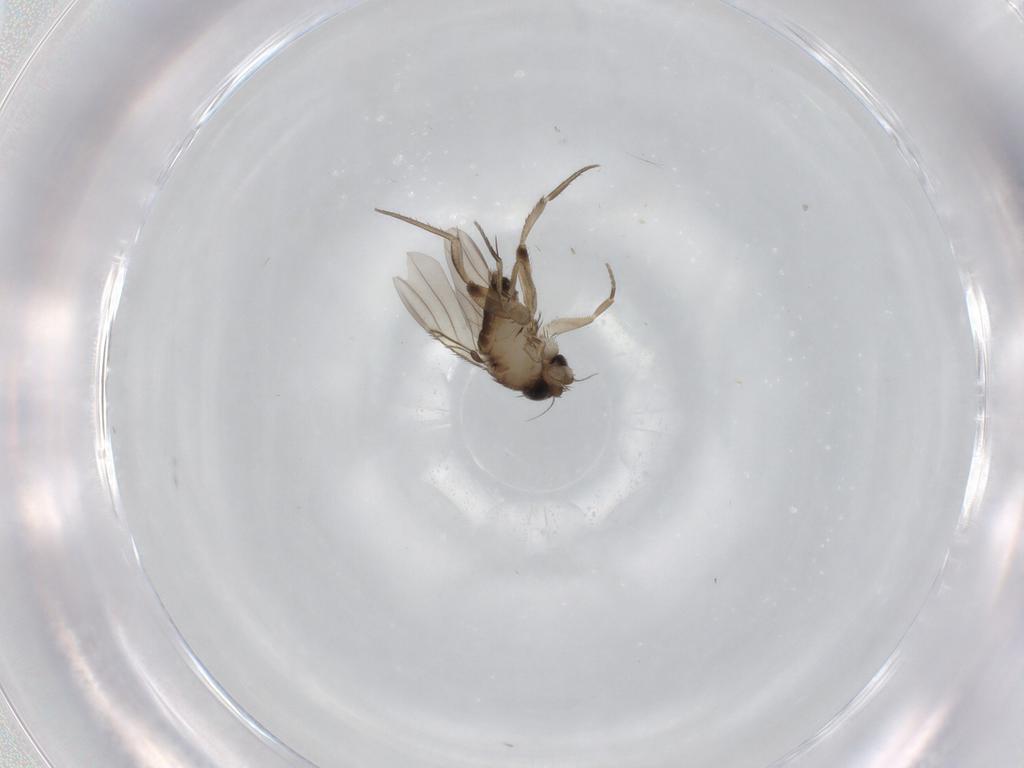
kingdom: Animalia
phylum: Arthropoda
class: Insecta
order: Diptera
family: Phoridae
